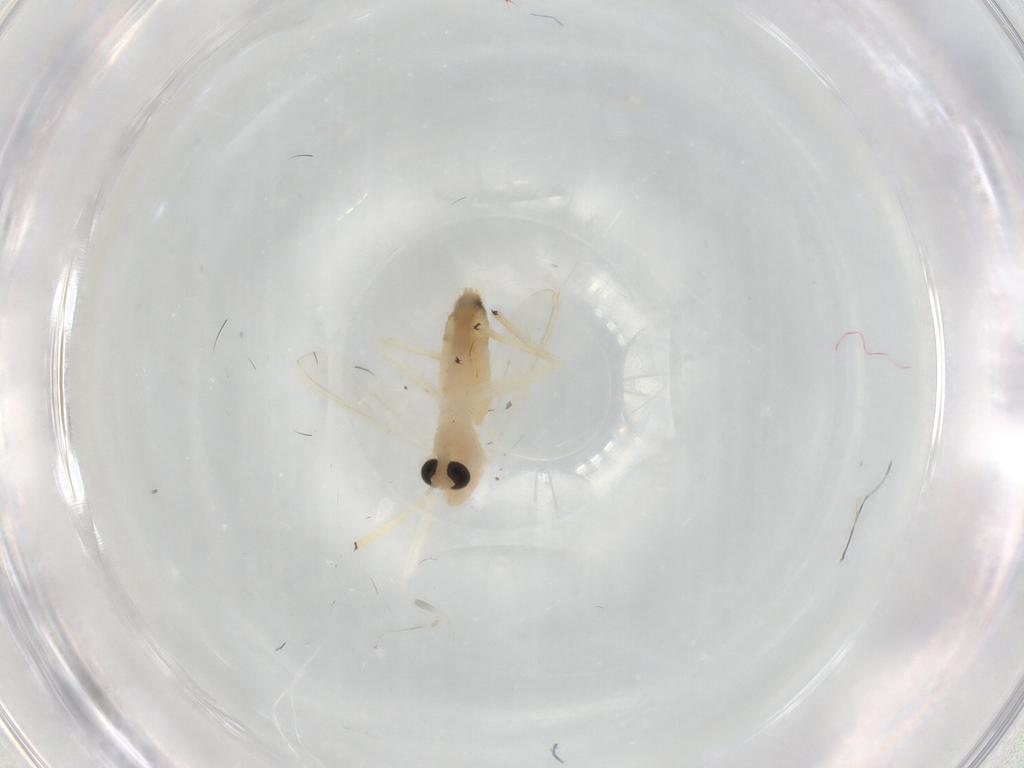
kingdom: Animalia
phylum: Arthropoda
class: Insecta
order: Diptera
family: Chironomidae
